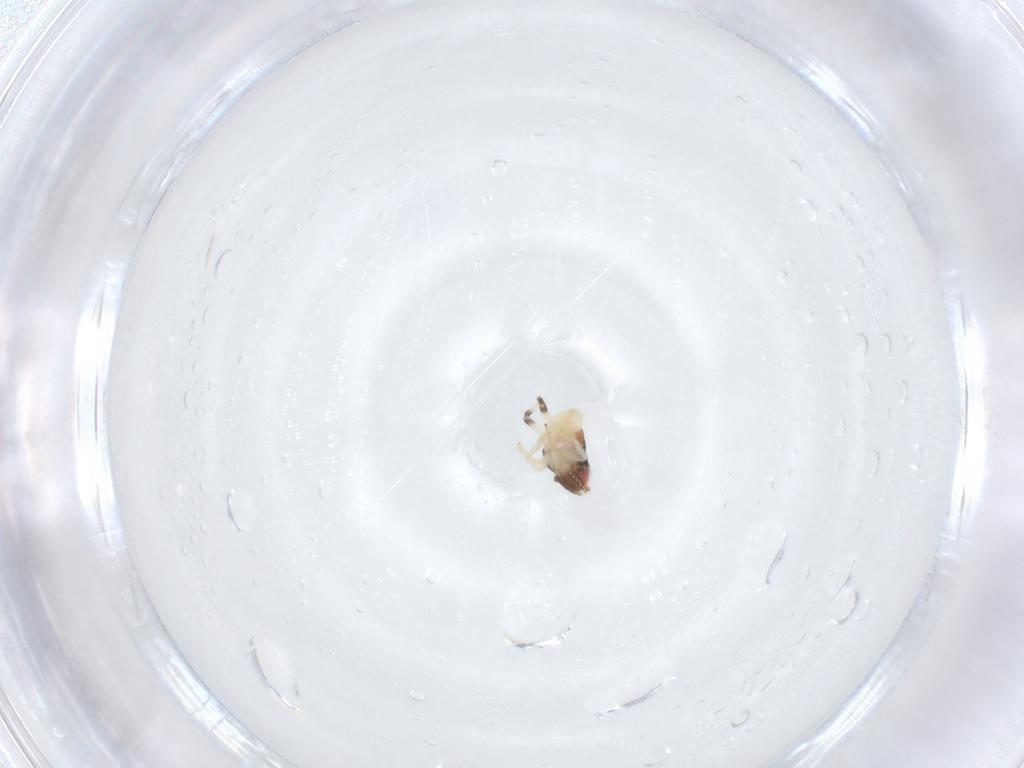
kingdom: Animalia
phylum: Arthropoda
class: Insecta
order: Hemiptera
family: Nogodinidae
